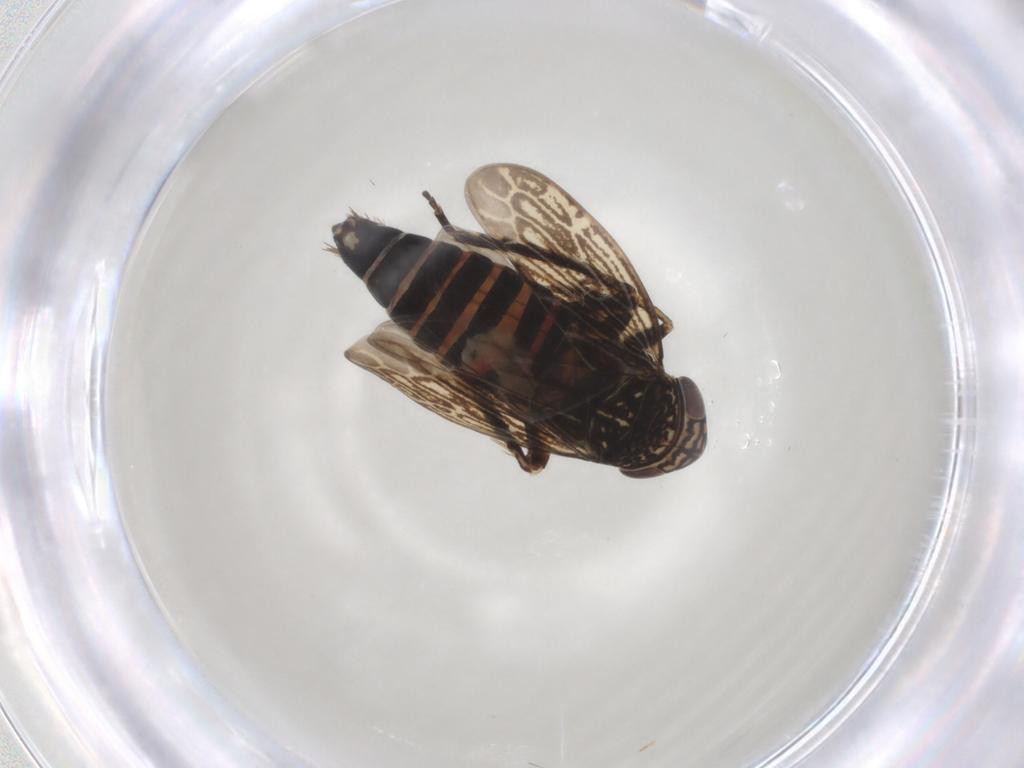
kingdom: Animalia
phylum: Arthropoda
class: Insecta
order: Hemiptera
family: Cicadellidae
